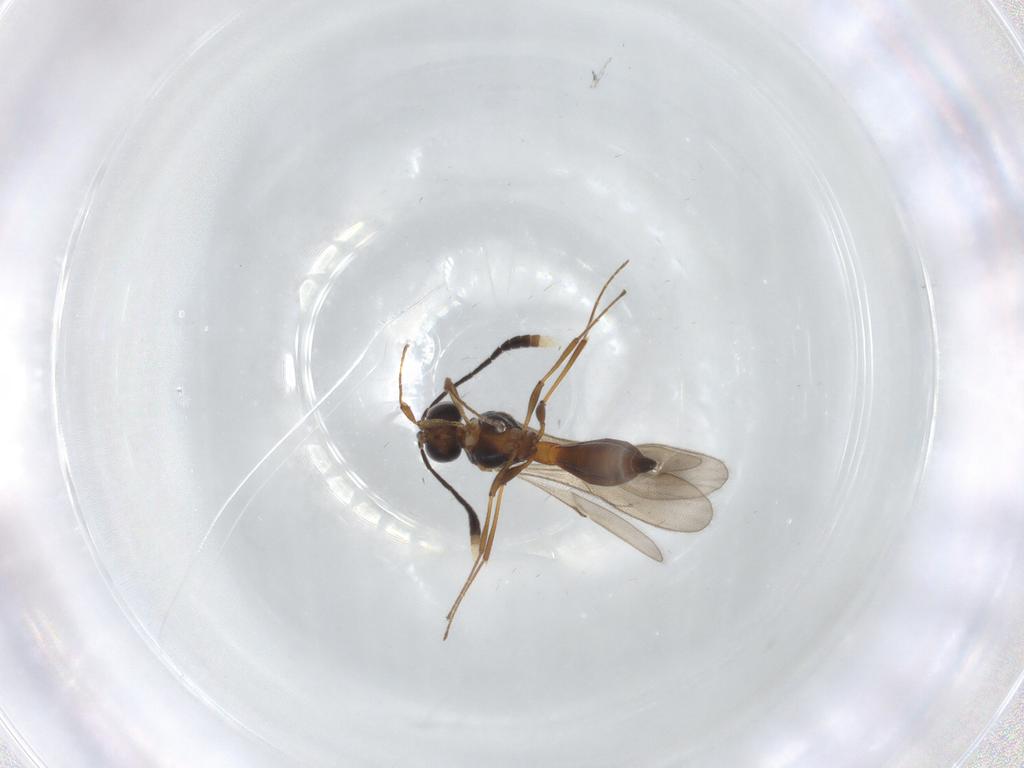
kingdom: Animalia
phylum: Arthropoda
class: Insecta
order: Hymenoptera
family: Scelionidae
